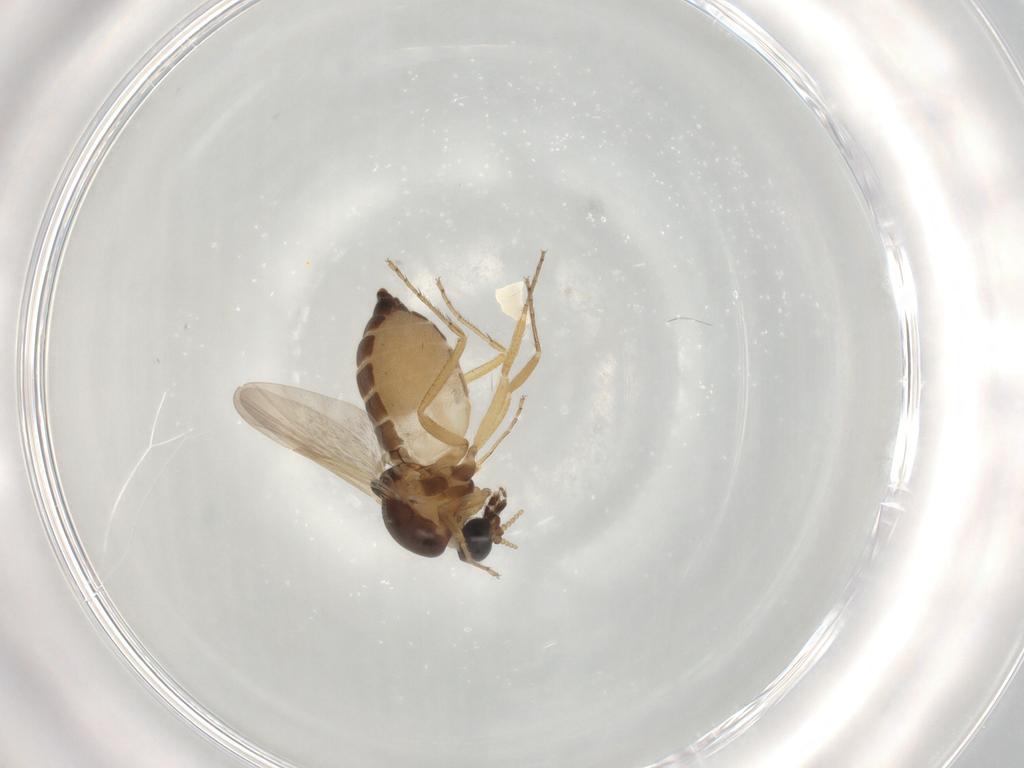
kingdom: Animalia
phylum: Arthropoda
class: Insecta
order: Diptera
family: Ceratopogonidae
